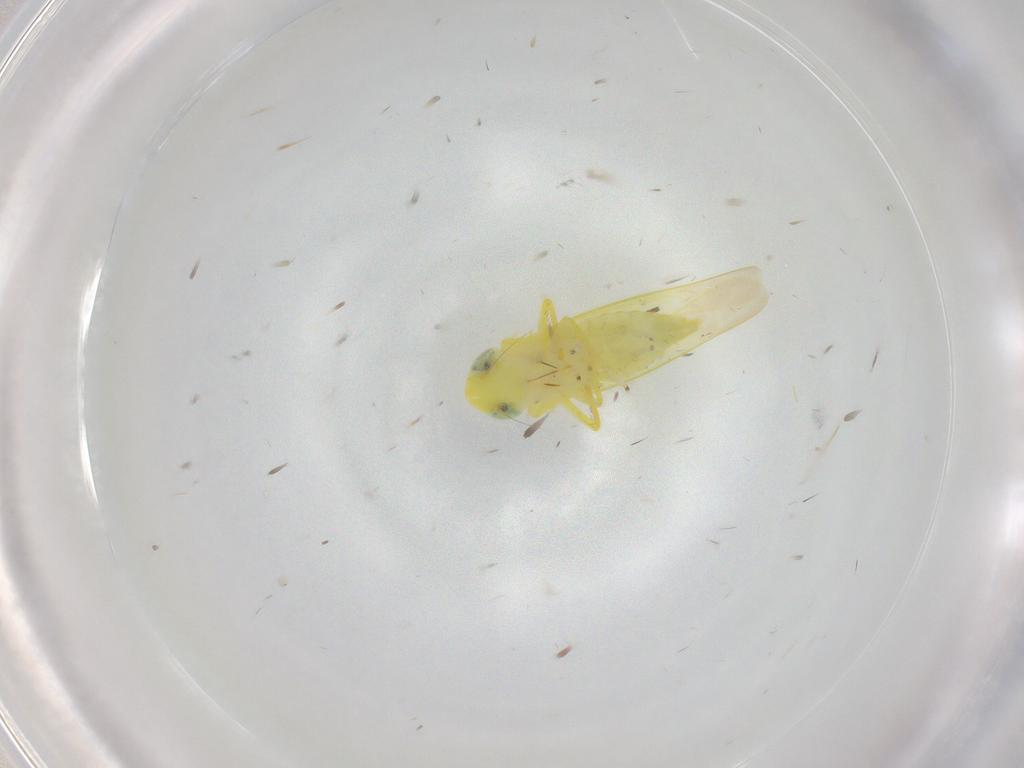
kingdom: Animalia
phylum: Arthropoda
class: Insecta
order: Hemiptera
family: Cicadellidae
